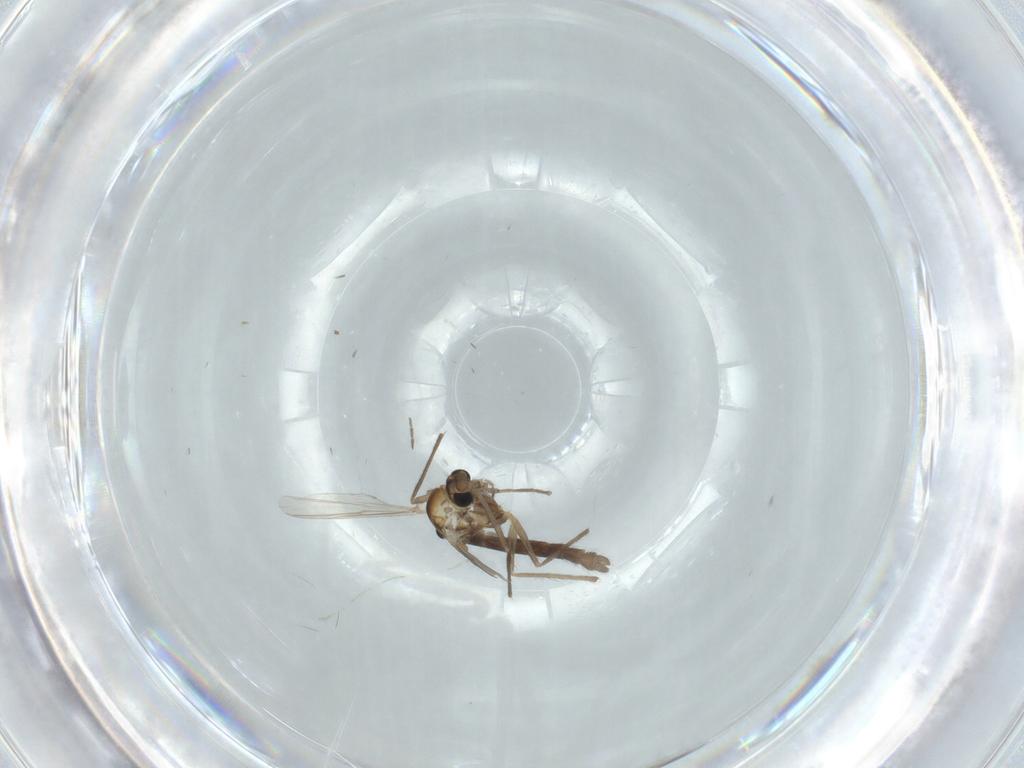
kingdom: Animalia
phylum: Arthropoda
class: Insecta
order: Diptera
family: Chironomidae
